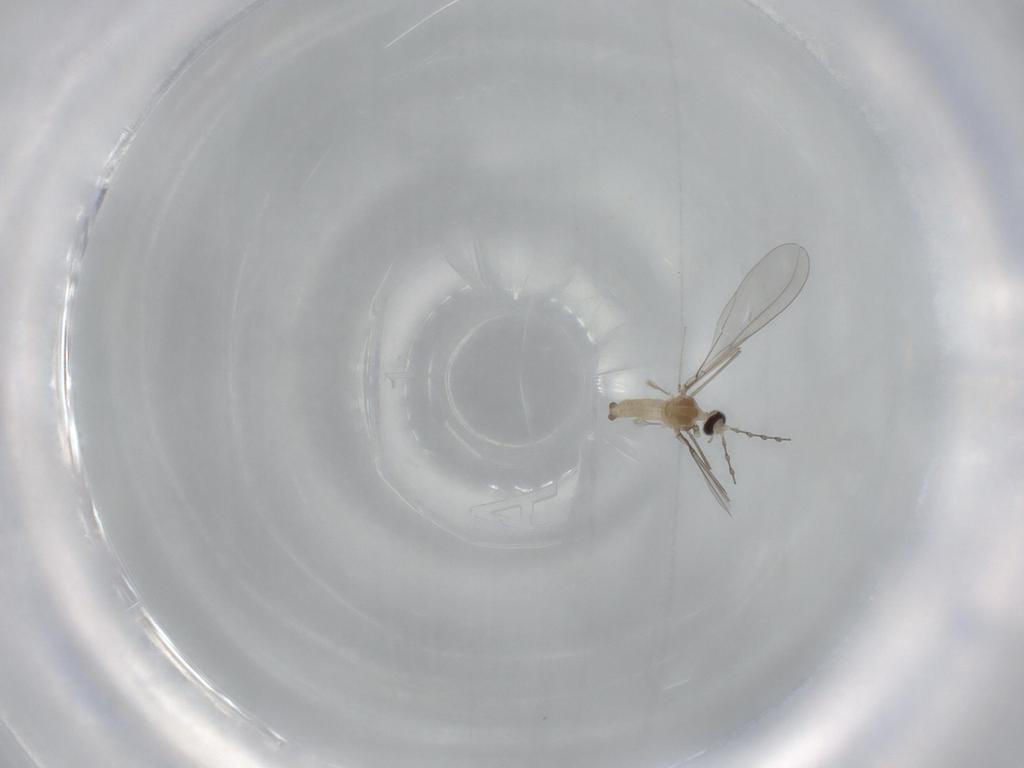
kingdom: Animalia
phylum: Arthropoda
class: Insecta
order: Diptera
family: Cecidomyiidae
